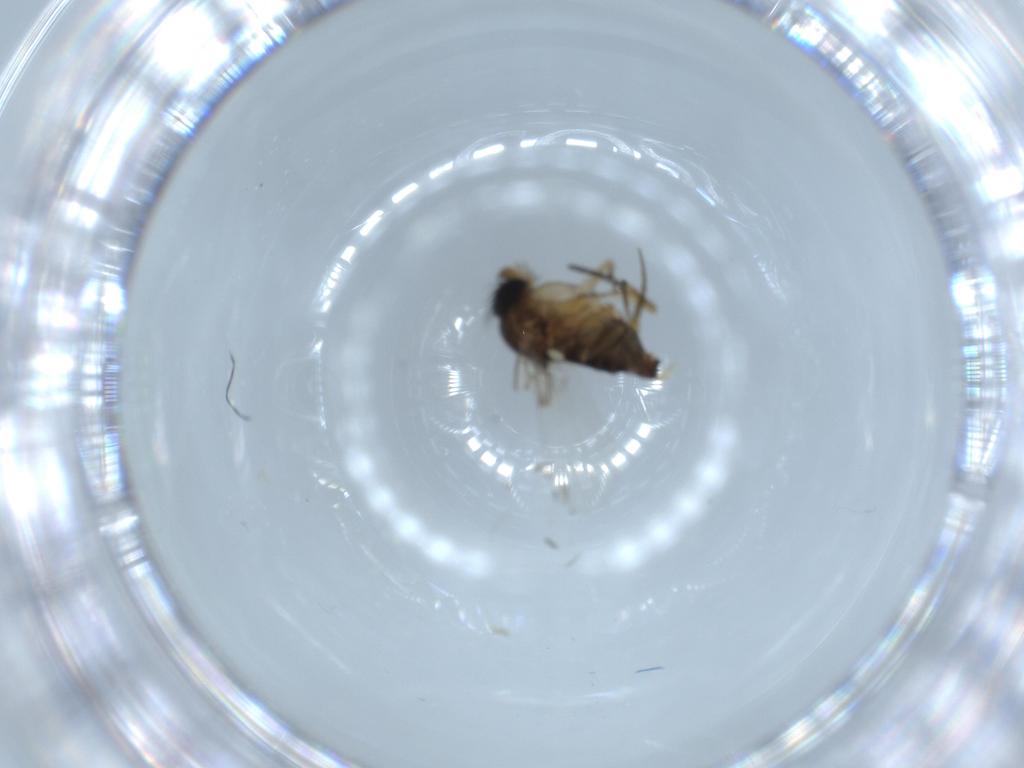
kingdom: Animalia
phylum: Arthropoda
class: Insecta
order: Diptera
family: Phoridae
